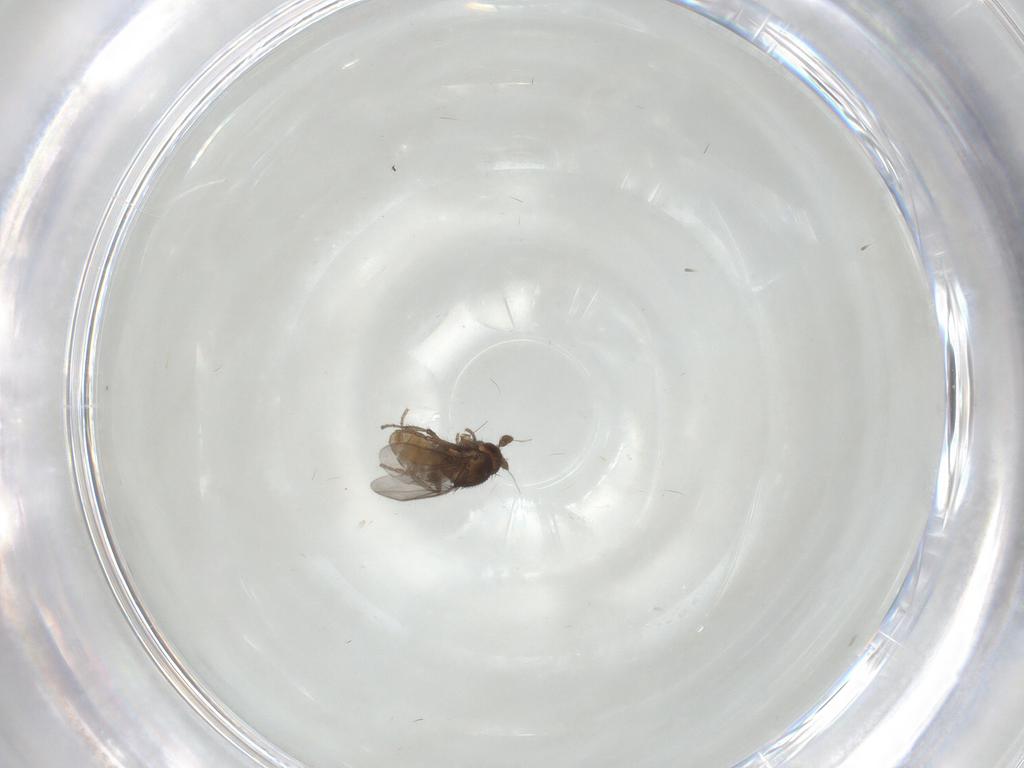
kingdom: Animalia
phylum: Arthropoda
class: Insecta
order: Diptera
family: Sphaeroceridae
